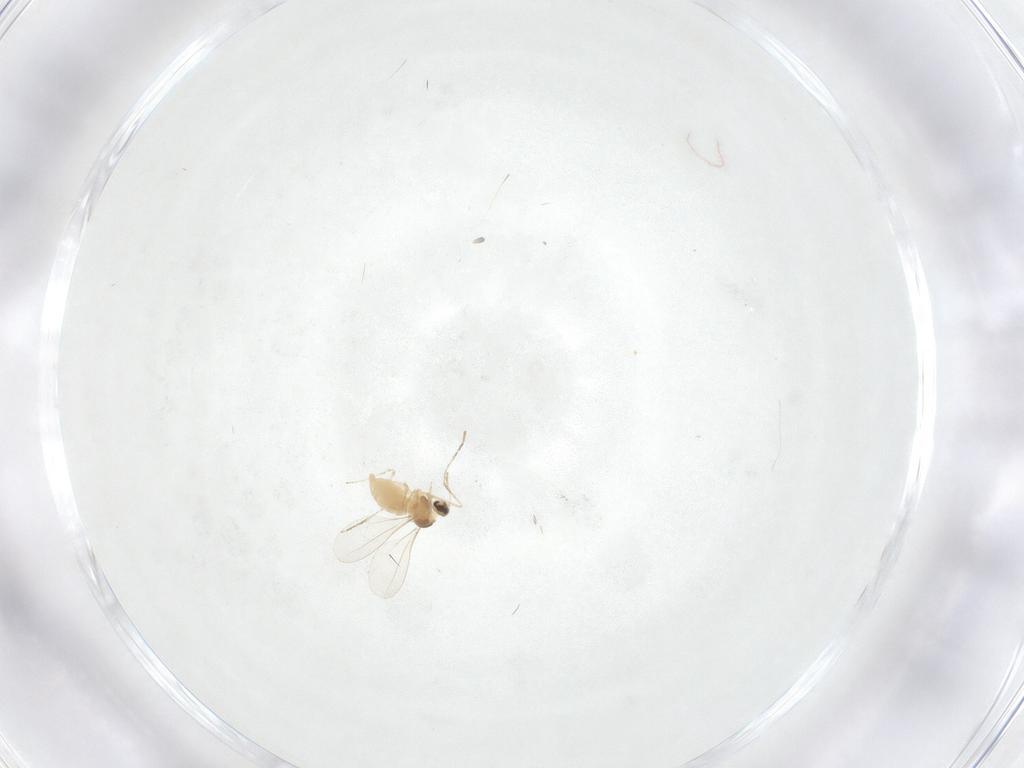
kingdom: Animalia
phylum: Arthropoda
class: Insecta
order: Diptera
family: Cecidomyiidae
